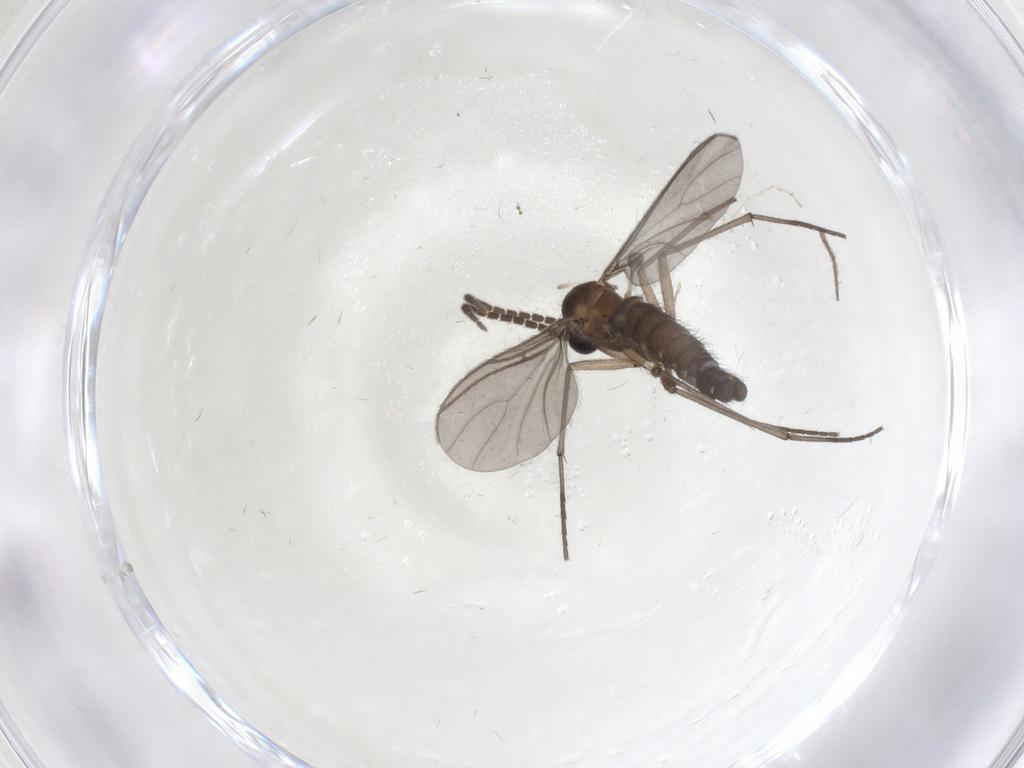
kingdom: Animalia
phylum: Arthropoda
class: Insecta
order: Diptera
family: Sciaridae
